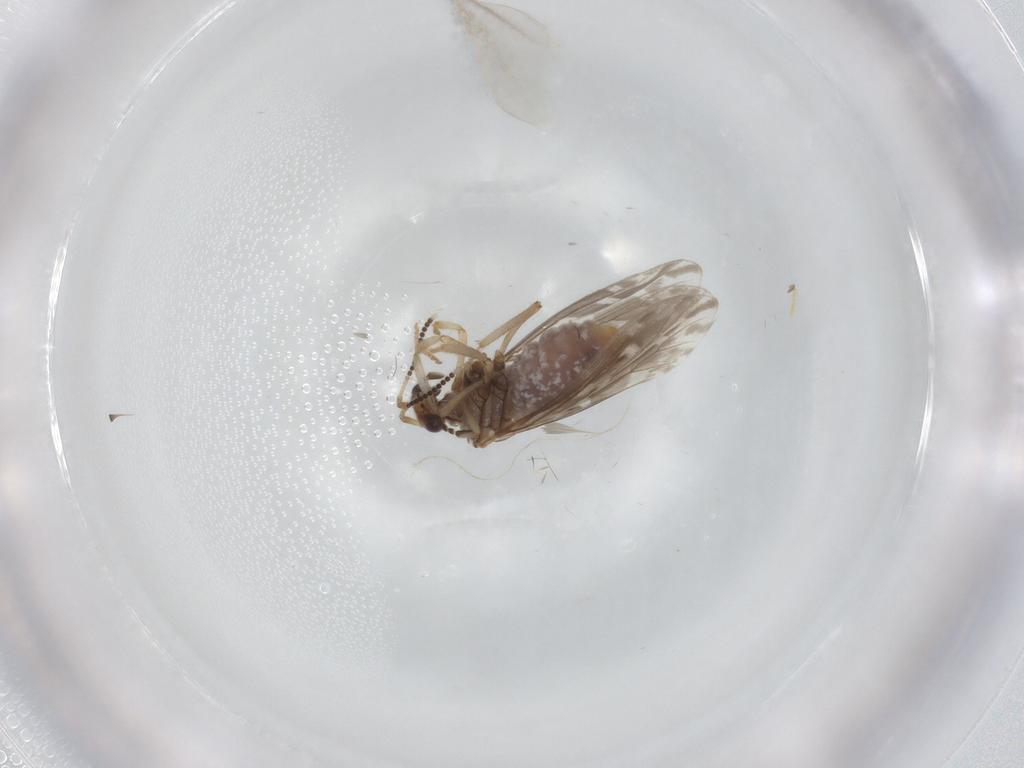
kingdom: Animalia
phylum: Arthropoda
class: Insecta
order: Neuroptera
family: Coniopterygidae
